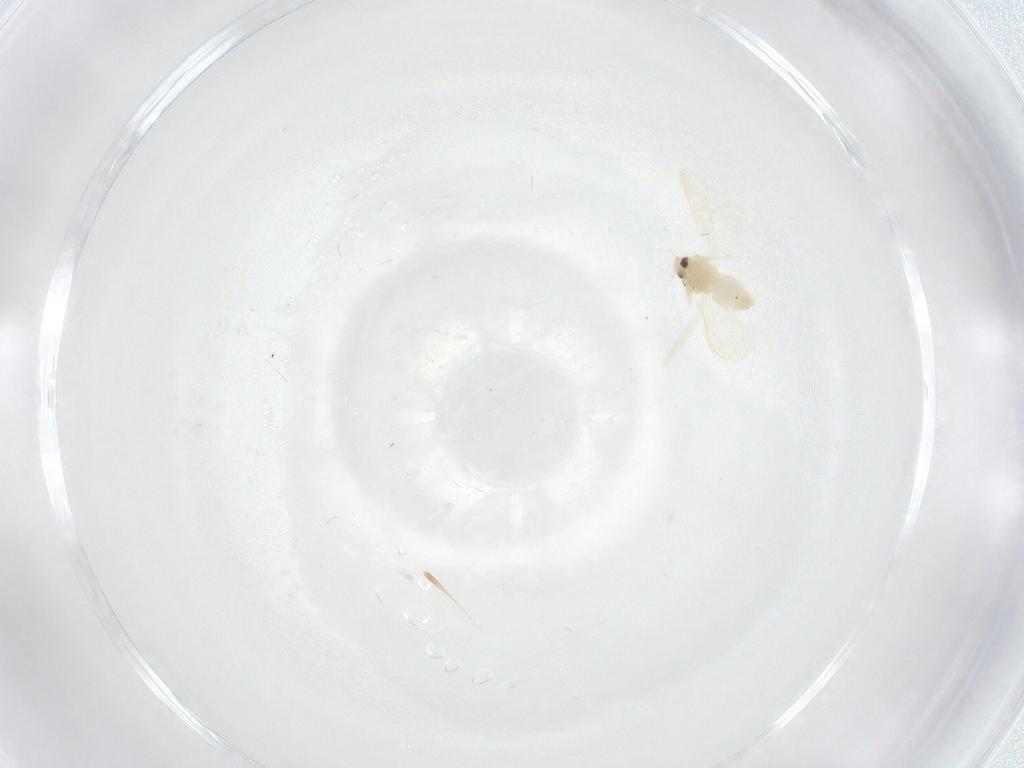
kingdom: Animalia
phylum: Arthropoda
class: Insecta
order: Hemiptera
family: Aleyrodidae
